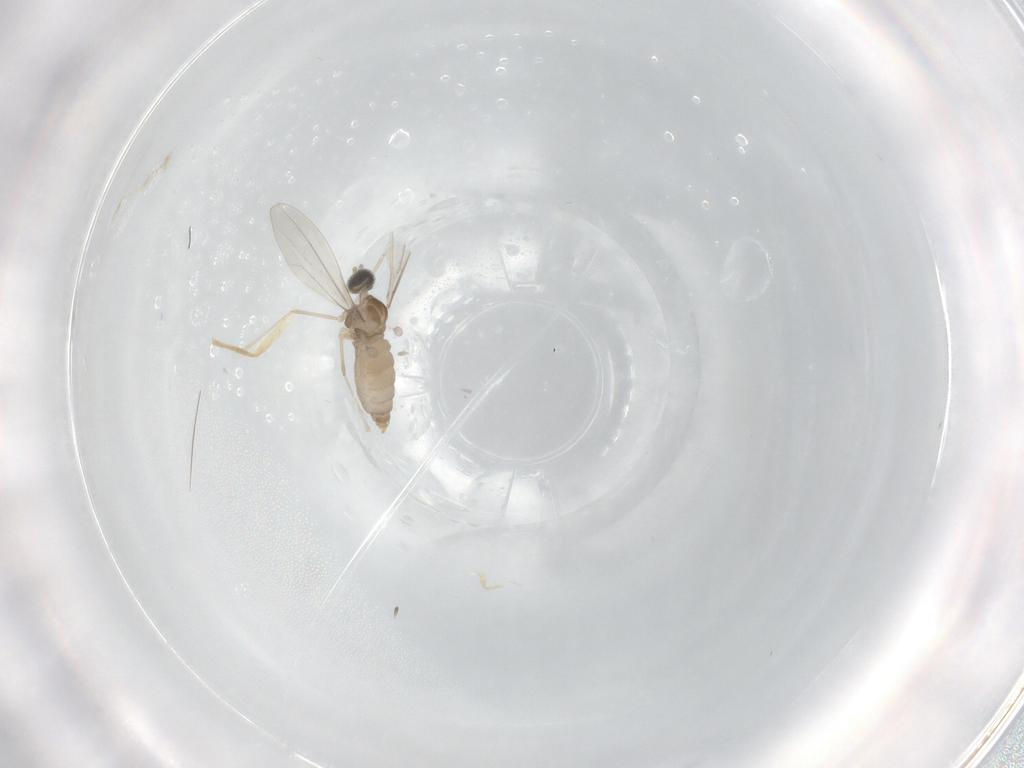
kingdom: Animalia
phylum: Arthropoda
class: Insecta
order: Diptera
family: Chironomidae
